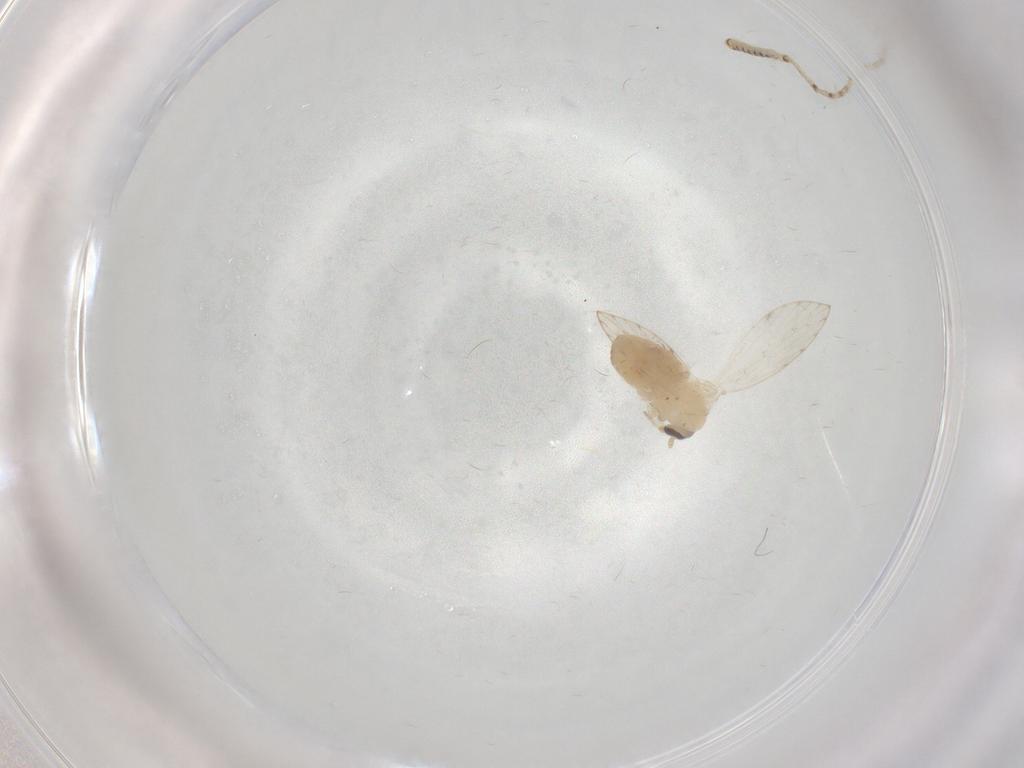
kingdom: Animalia
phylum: Arthropoda
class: Insecta
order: Diptera
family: Psychodidae
